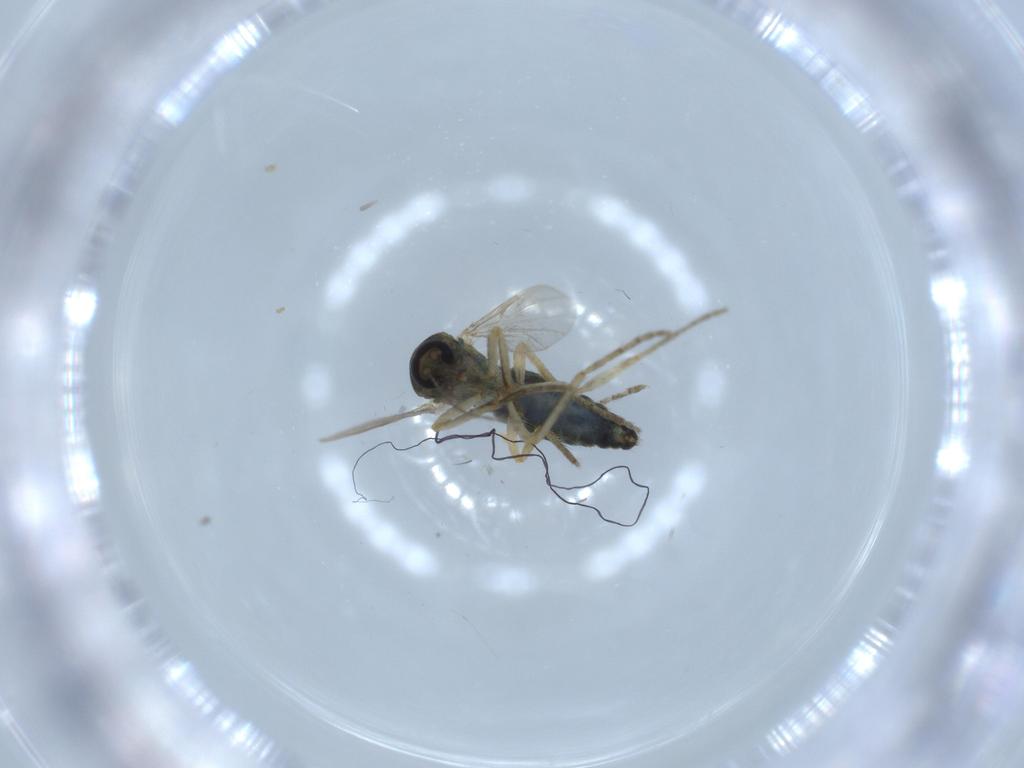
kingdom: Animalia
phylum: Arthropoda
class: Insecta
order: Diptera
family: Ceratopogonidae
